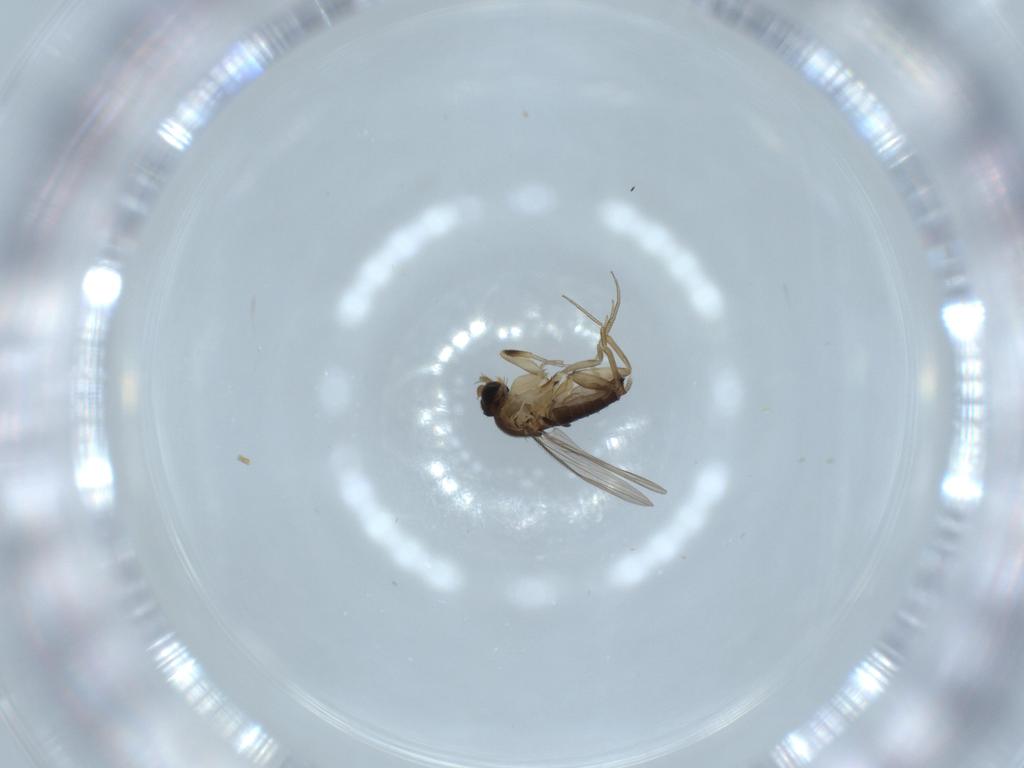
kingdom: Animalia
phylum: Arthropoda
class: Insecta
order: Diptera
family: Phoridae
